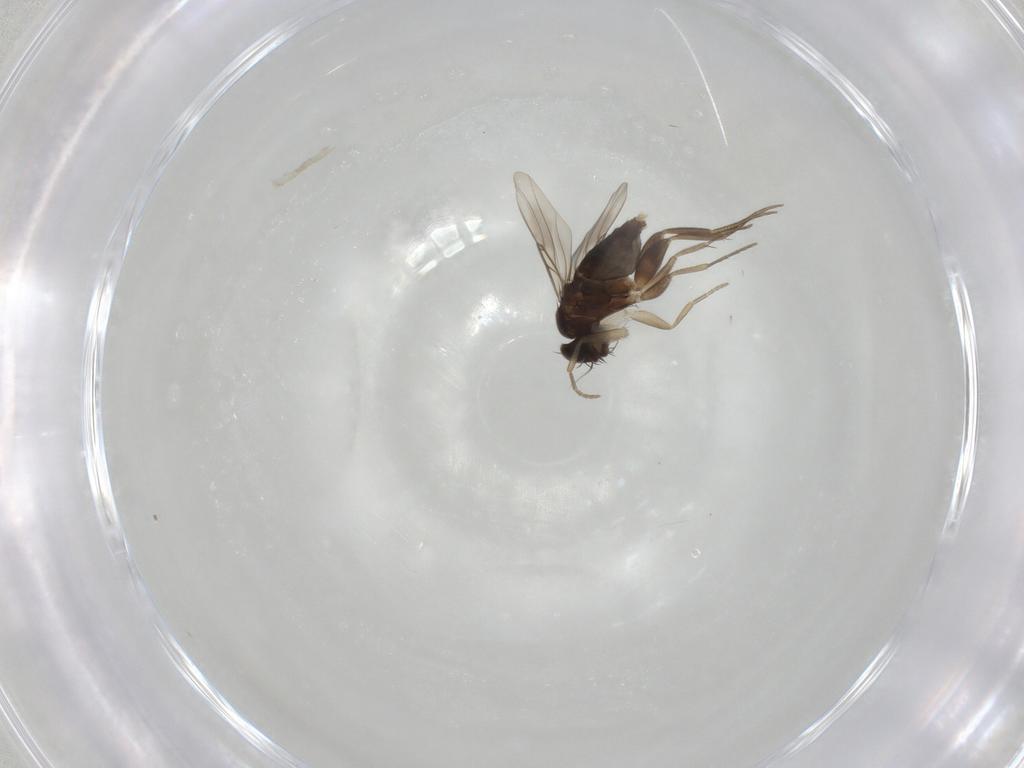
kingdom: Animalia
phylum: Arthropoda
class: Insecta
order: Diptera
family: Phoridae
